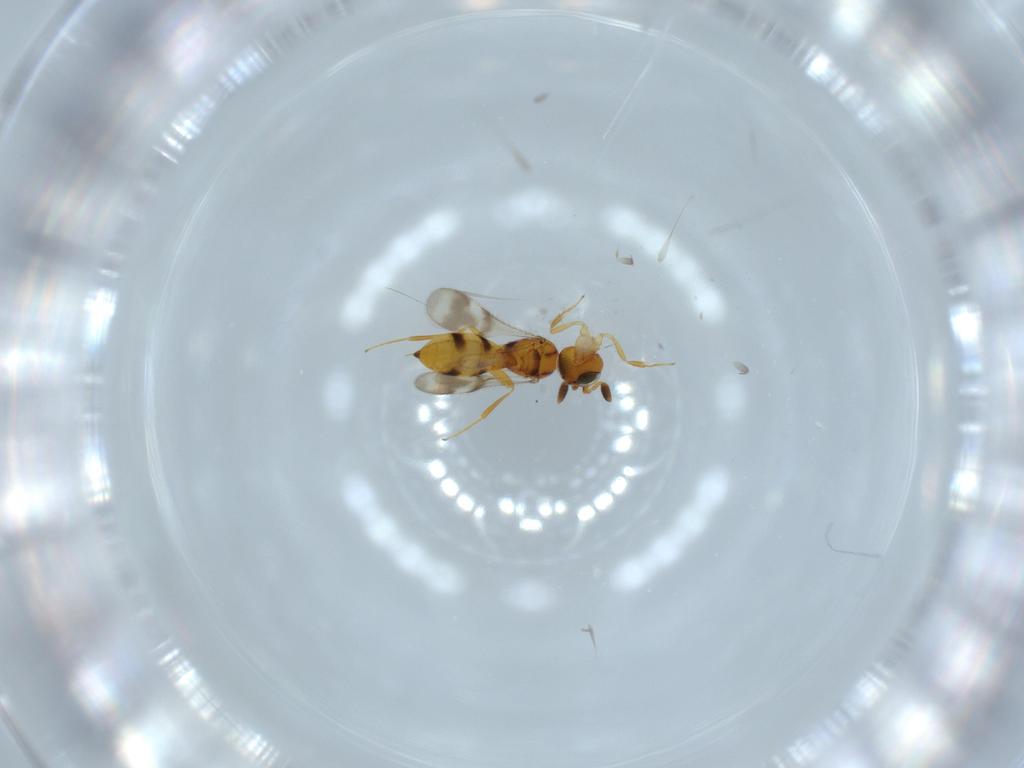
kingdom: Animalia
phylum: Arthropoda
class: Insecta
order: Hymenoptera
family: Scelionidae
